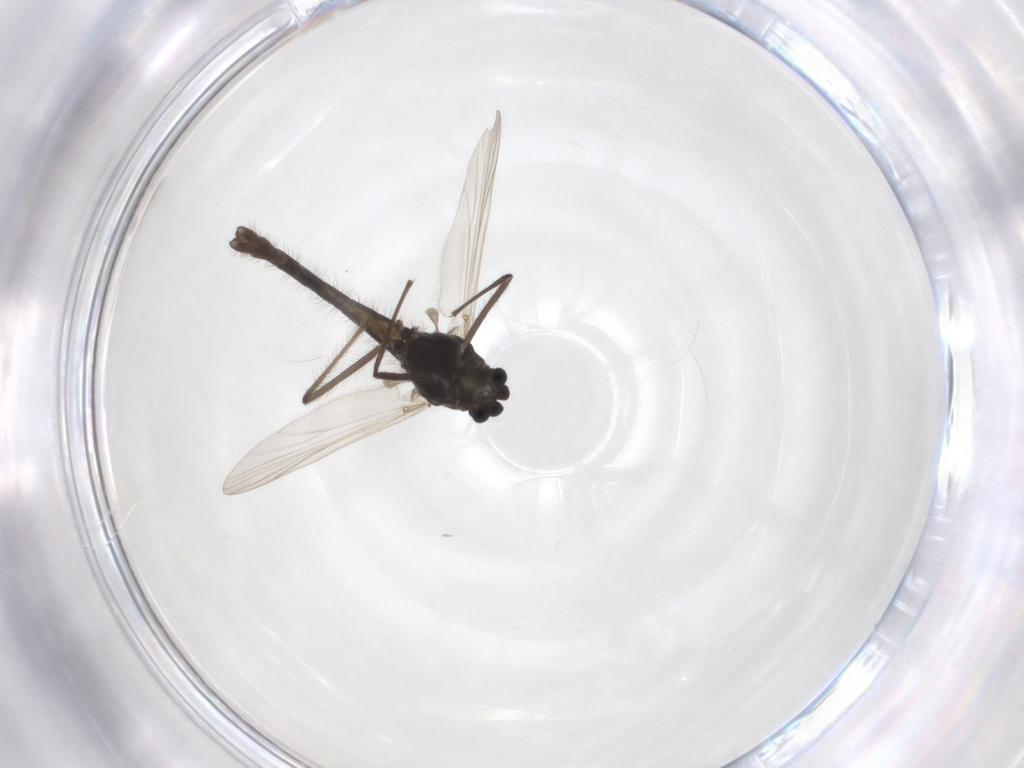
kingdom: Animalia
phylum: Arthropoda
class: Insecta
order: Diptera
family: Chironomidae
